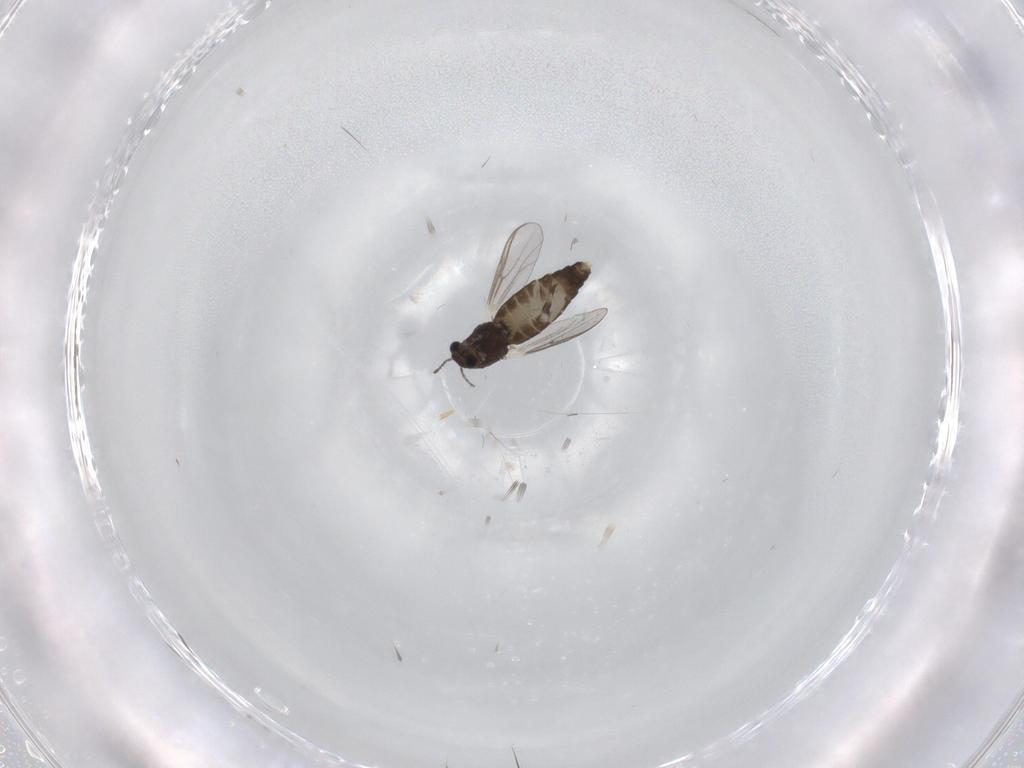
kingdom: Animalia
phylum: Arthropoda
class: Insecta
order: Diptera
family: Chironomidae
